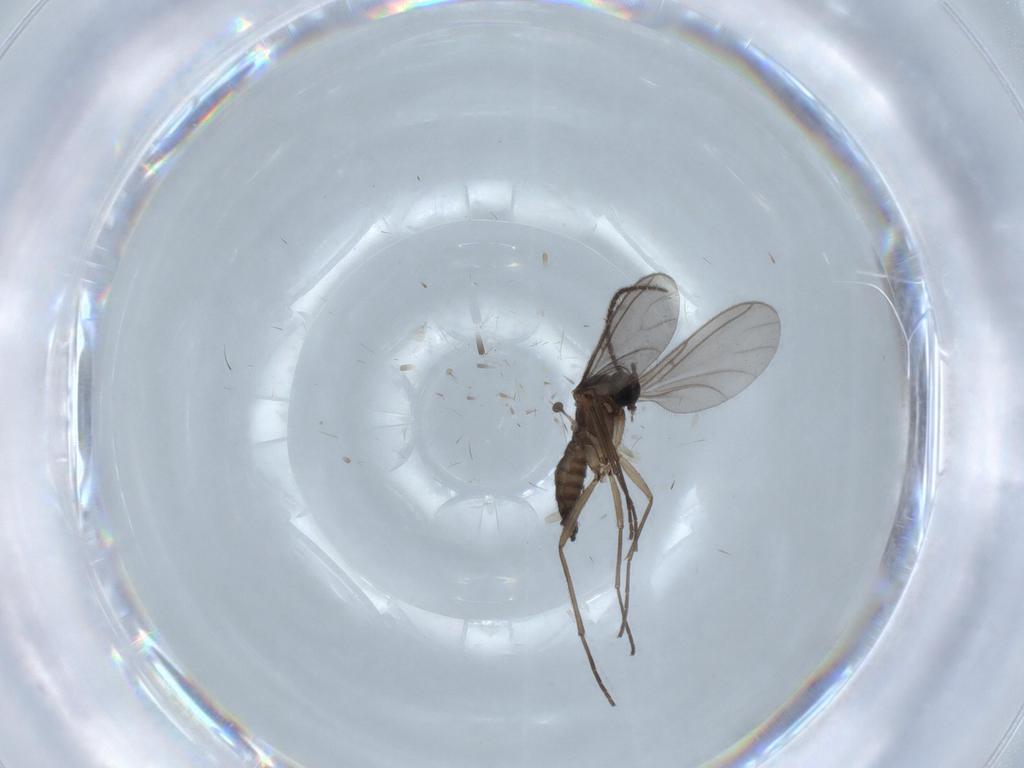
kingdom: Animalia
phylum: Arthropoda
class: Insecta
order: Diptera
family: Sciaridae
